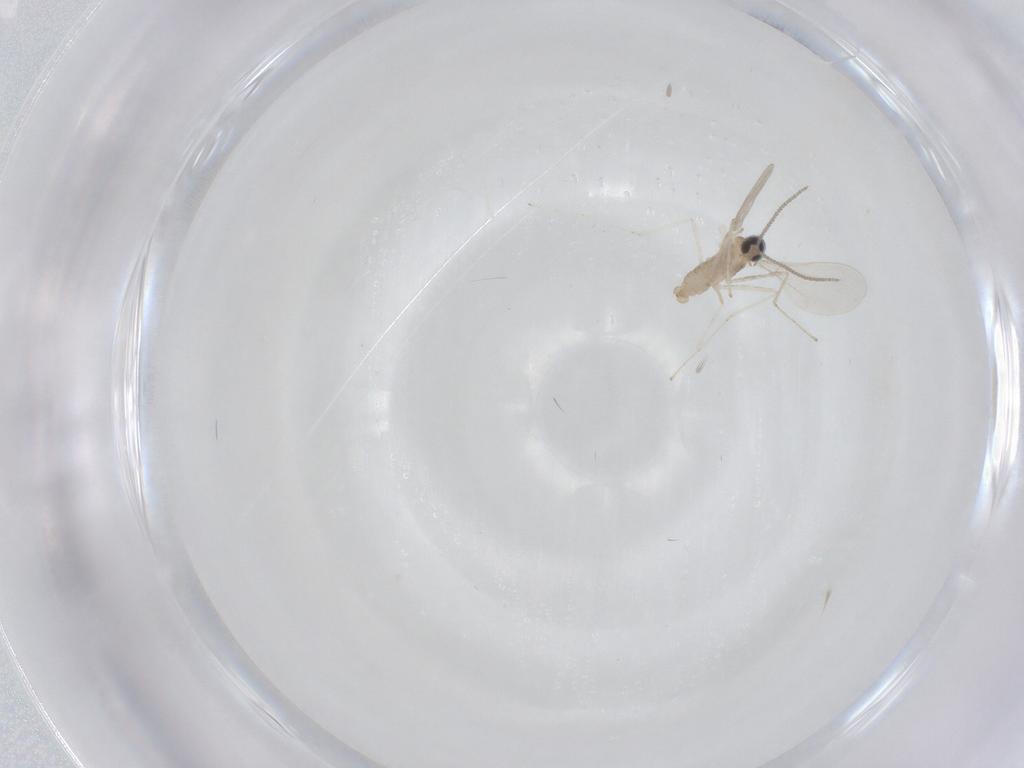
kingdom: Animalia
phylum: Arthropoda
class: Insecta
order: Diptera
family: Cecidomyiidae
